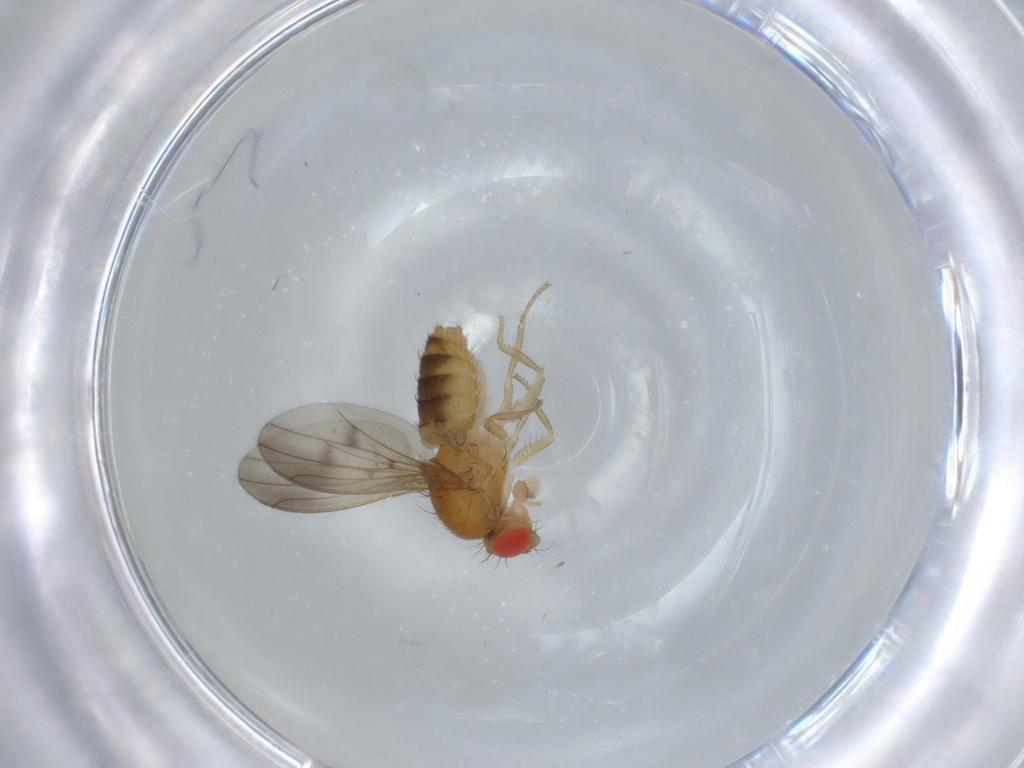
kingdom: Animalia
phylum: Arthropoda
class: Insecta
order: Diptera
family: Drosophilidae
